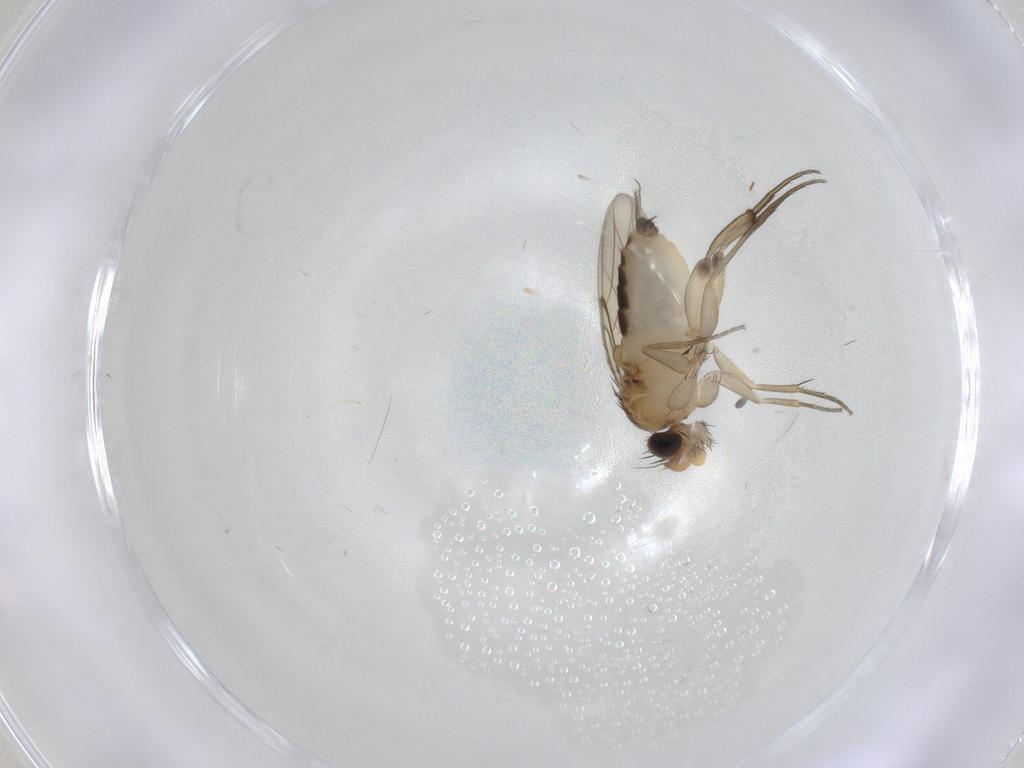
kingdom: Animalia
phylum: Arthropoda
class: Insecta
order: Diptera
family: Phoridae
